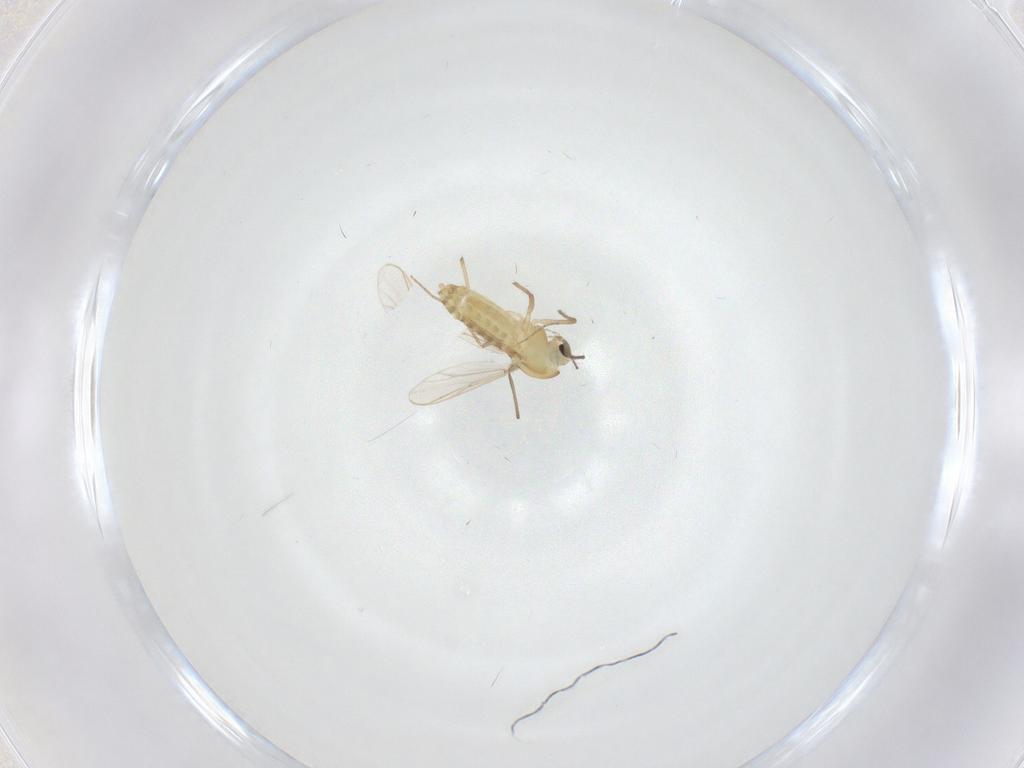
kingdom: Animalia
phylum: Arthropoda
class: Insecta
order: Diptera
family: Chironomidae
